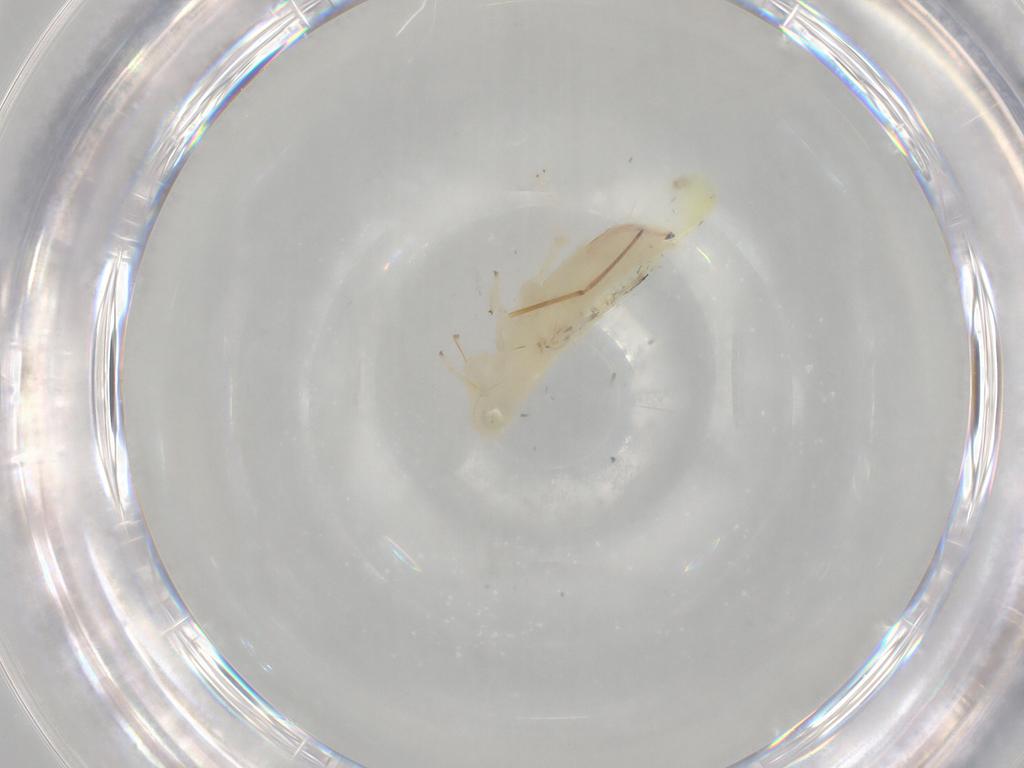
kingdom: Animalia
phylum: Arthropoda
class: Insecta
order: Hemiptera
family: Cicadellidae
